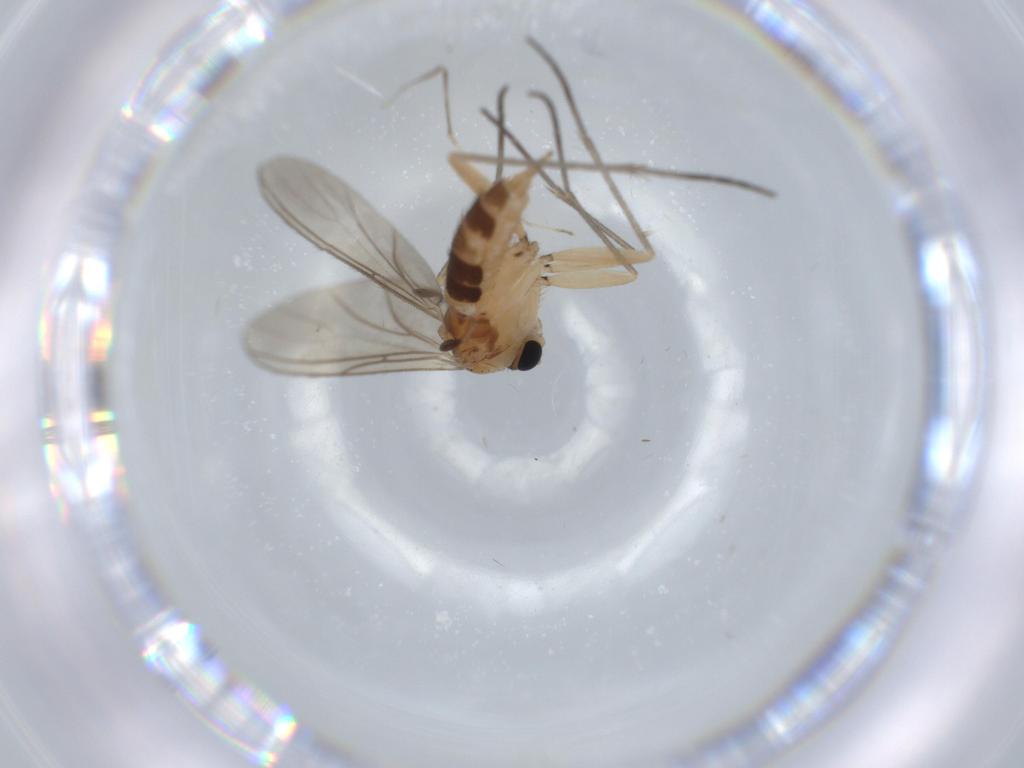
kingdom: Animalia
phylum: Arthropoda
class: Insecta
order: Diptera
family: Sciaridae
